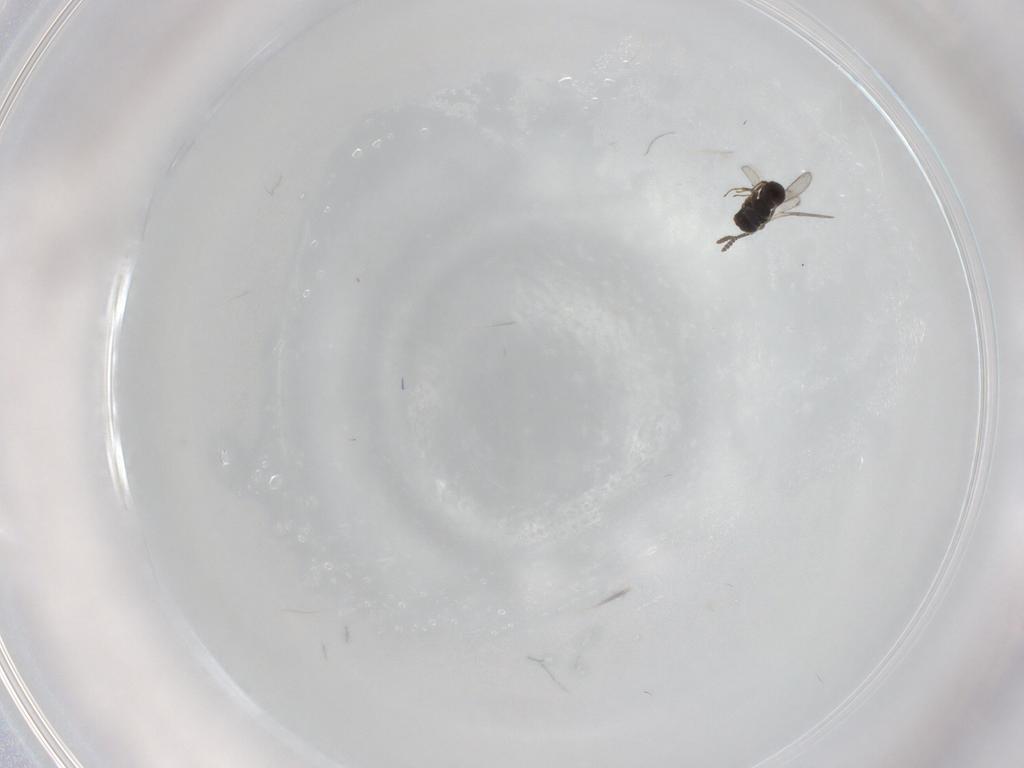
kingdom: Animalia
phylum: Arthropoda
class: Insecta
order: Hymenoptera
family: Scelionidae
